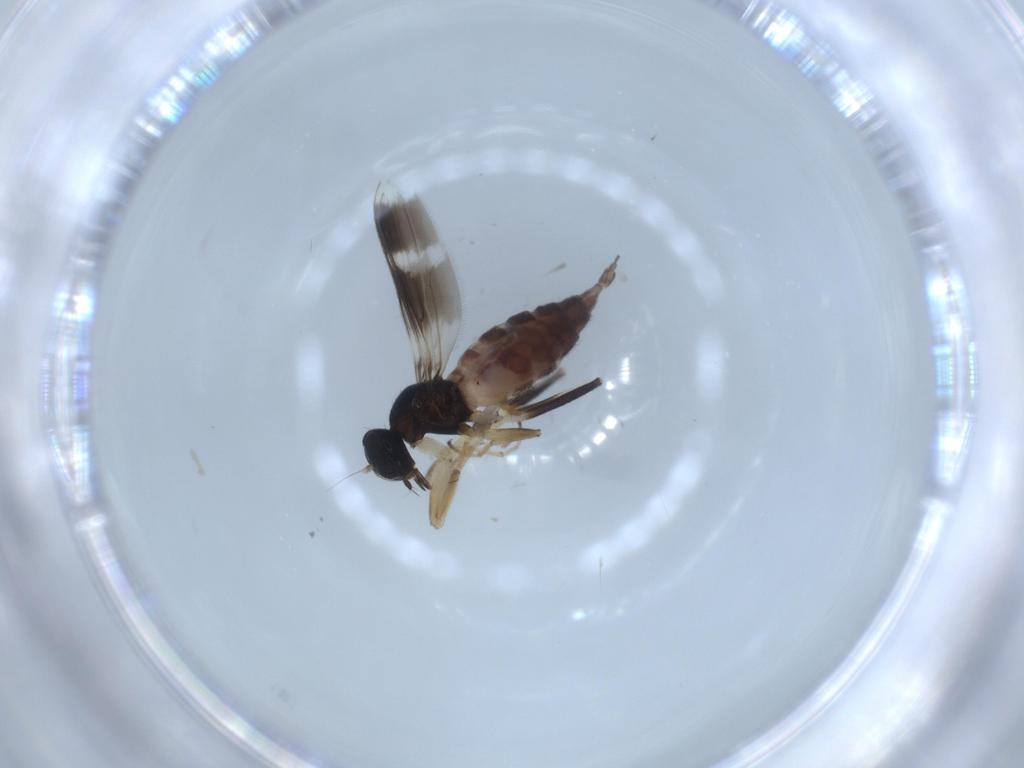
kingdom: Animalia
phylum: Arthropoda
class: Insecta
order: Diptera
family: Hybotidae
